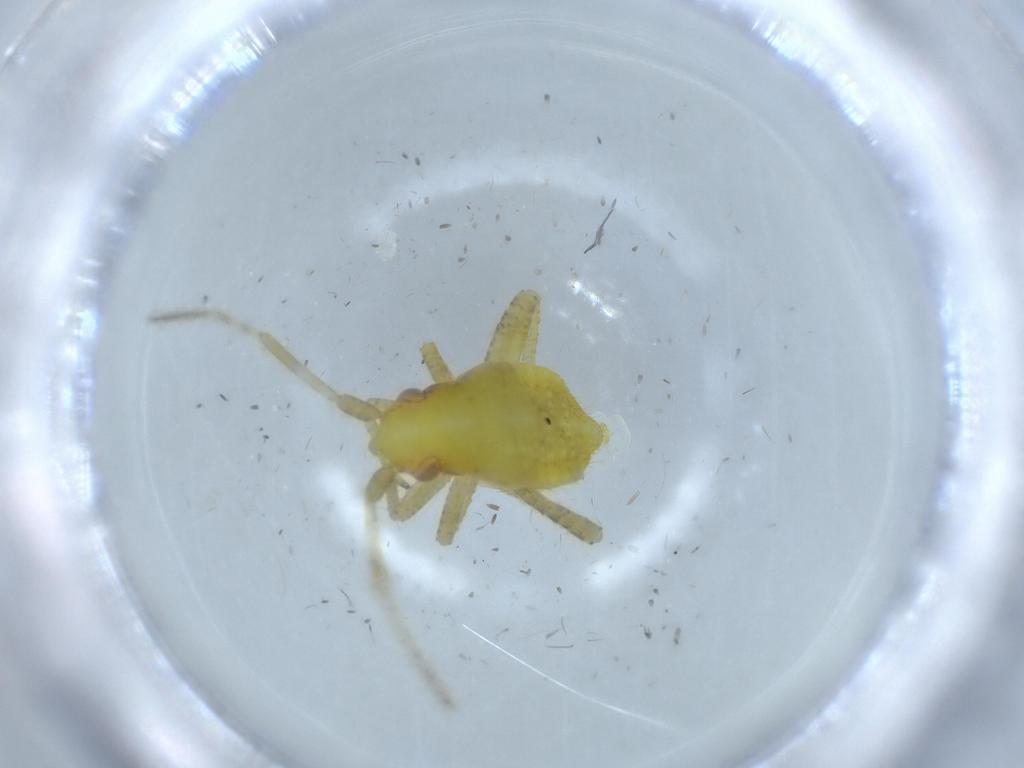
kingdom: Animalia
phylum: Arthropoda
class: Insecta
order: Hemiptera
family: Miridae
